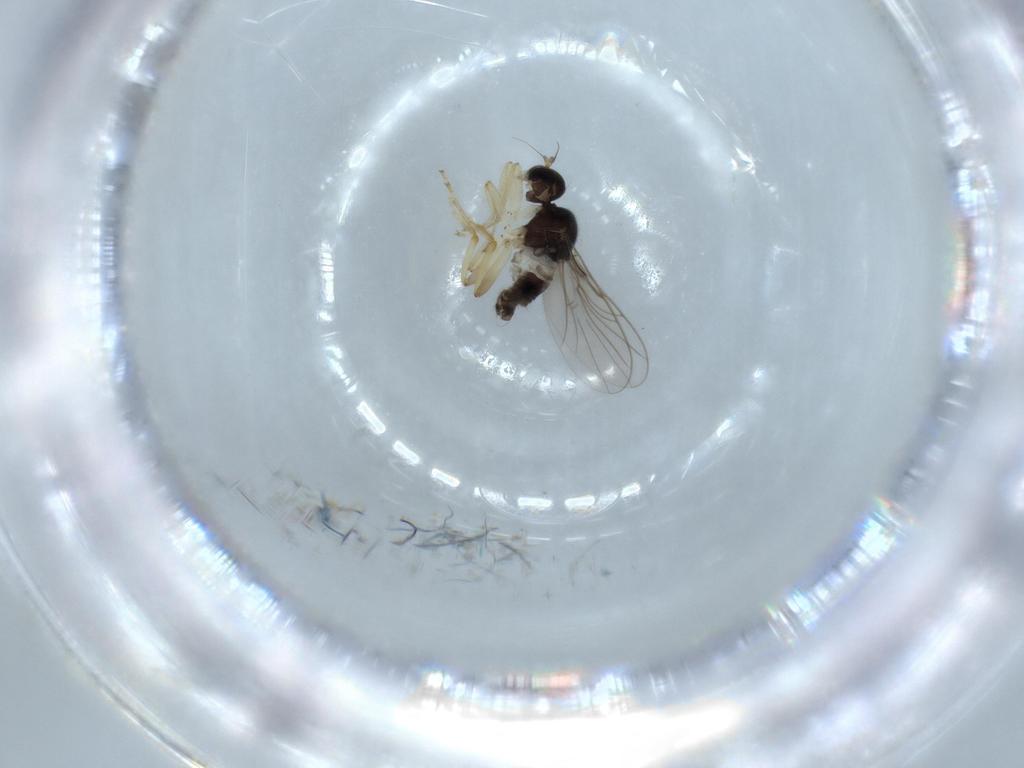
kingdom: Animalia
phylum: Arthropoda
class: Insecta
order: Diptera
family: Hybotidae
